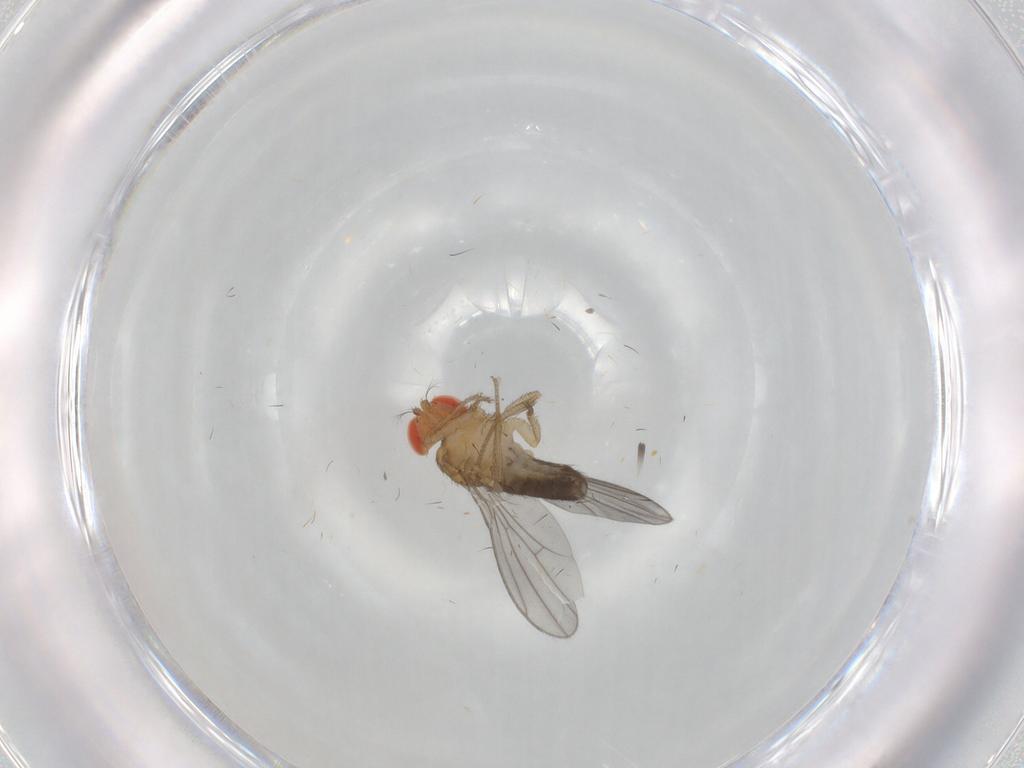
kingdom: Animalia
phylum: Arthropoda
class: Insecta
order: Diptera
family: Drosophilidae
